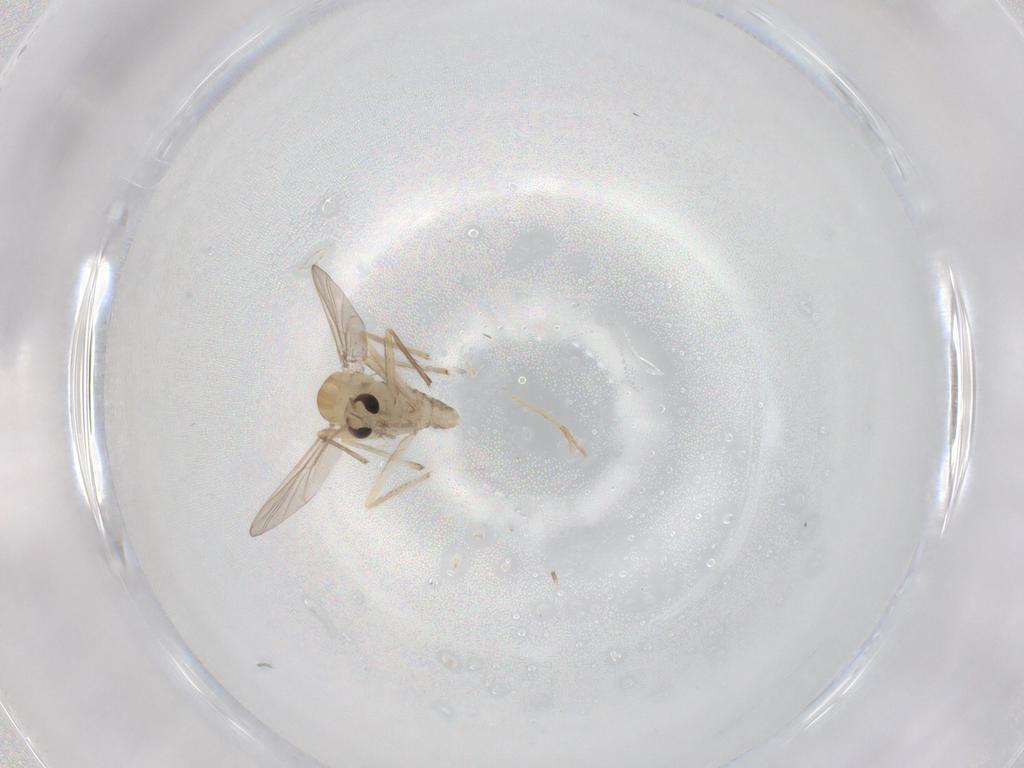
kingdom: Animalia
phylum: Arthropoda
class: Insecta
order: Diptera
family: Chironomidae
